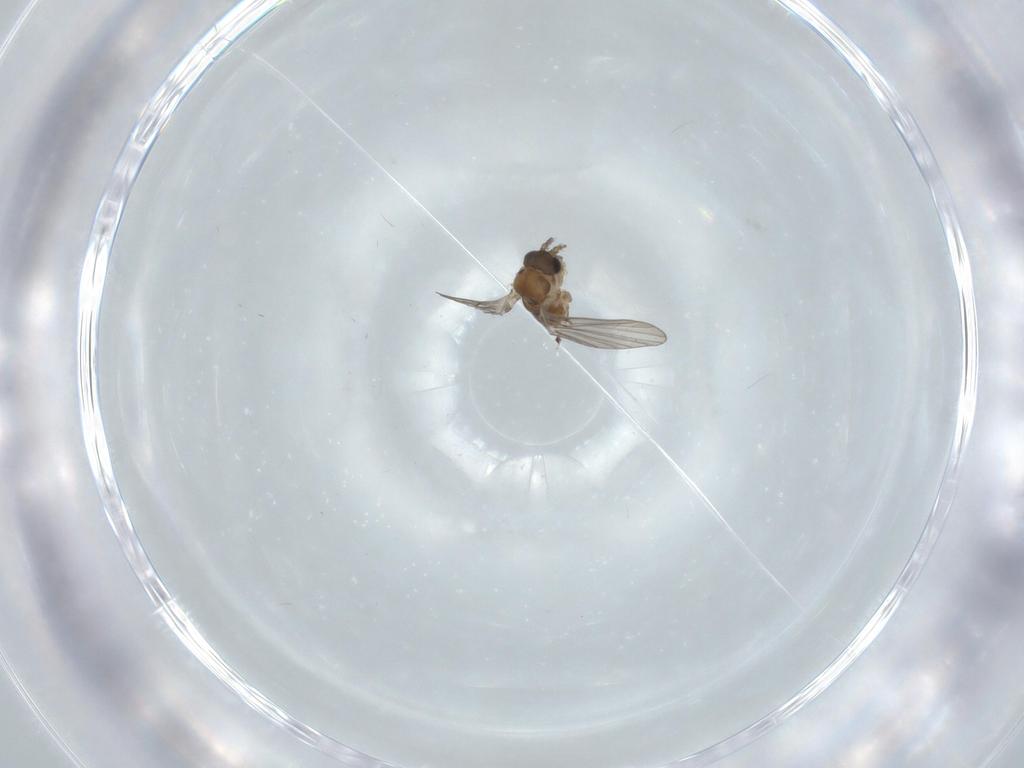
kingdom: Animalia
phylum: Arthropoda
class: Insecta
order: Diptera
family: Psychodidae
